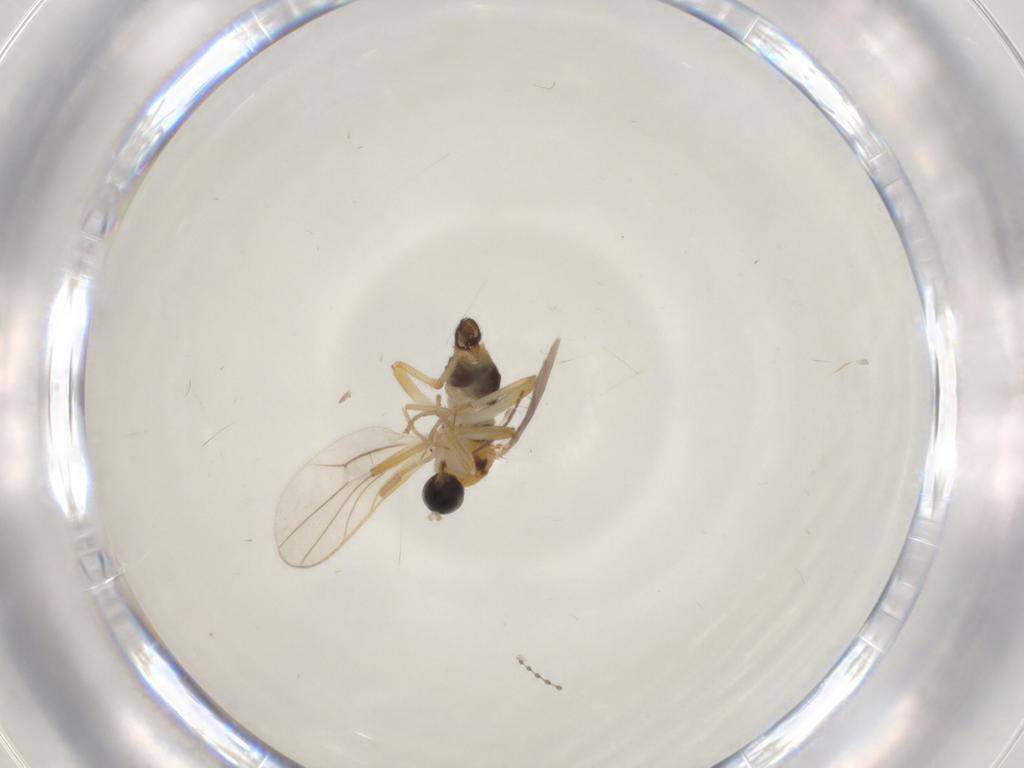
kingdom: Animalia
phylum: Arthropoda
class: Insecta
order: Diptera
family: Hybotidae
